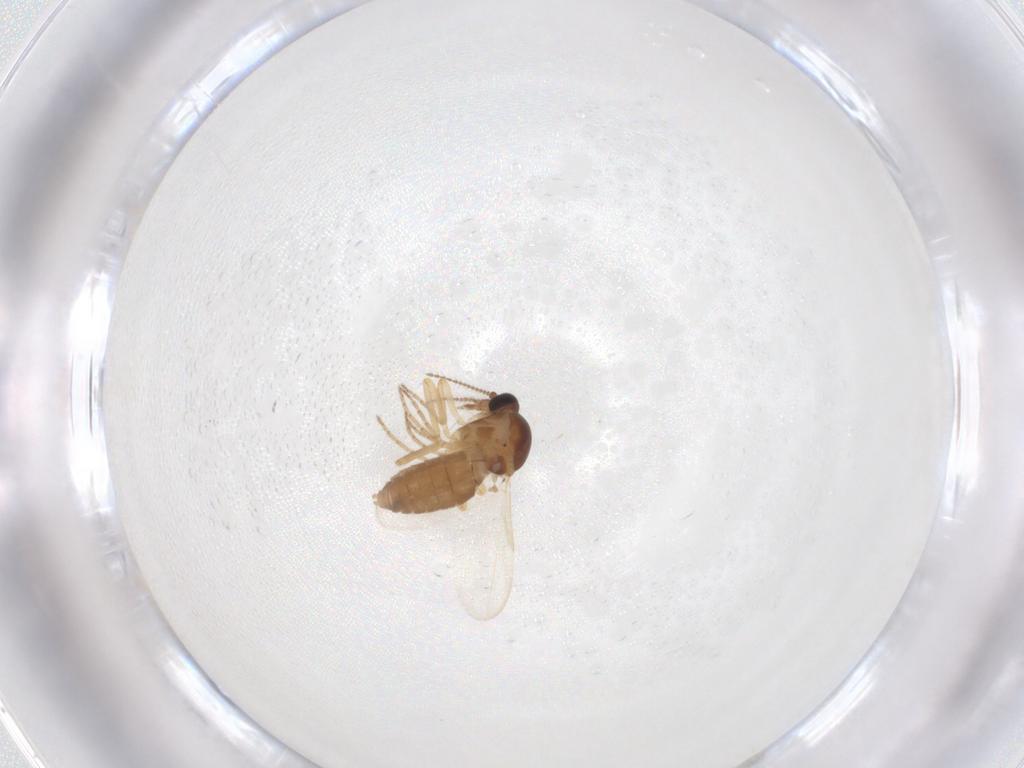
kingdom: Animalia
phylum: Arthropoda
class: Insecta
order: Diptera
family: Ceratopogonidae
